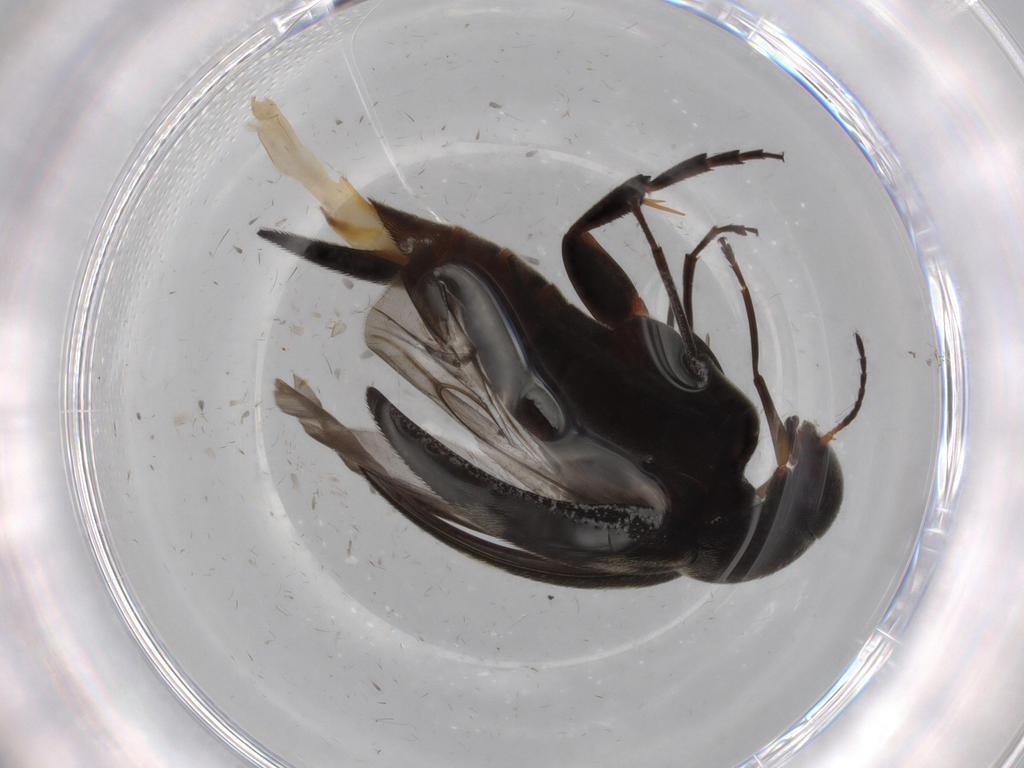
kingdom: Animalia
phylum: Arthropoda
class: Insecta
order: Coleoptera
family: Mordellidae
